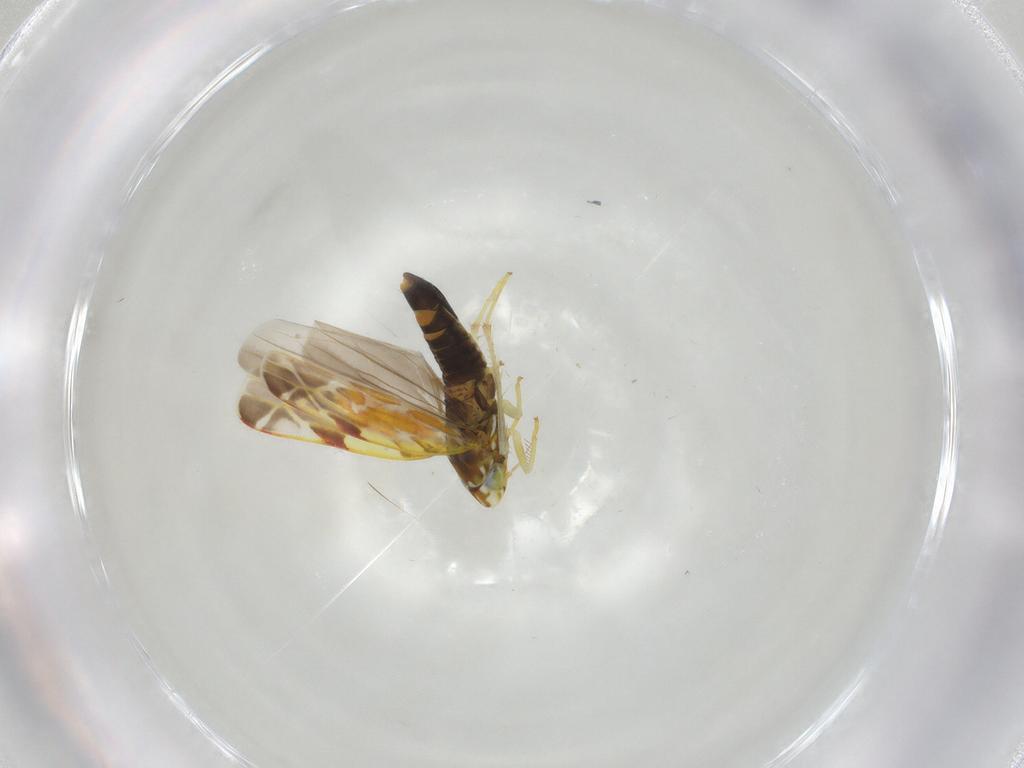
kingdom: Animalia
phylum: Arthropoda
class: Insecta
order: Hemiptera
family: Cicadellidae
